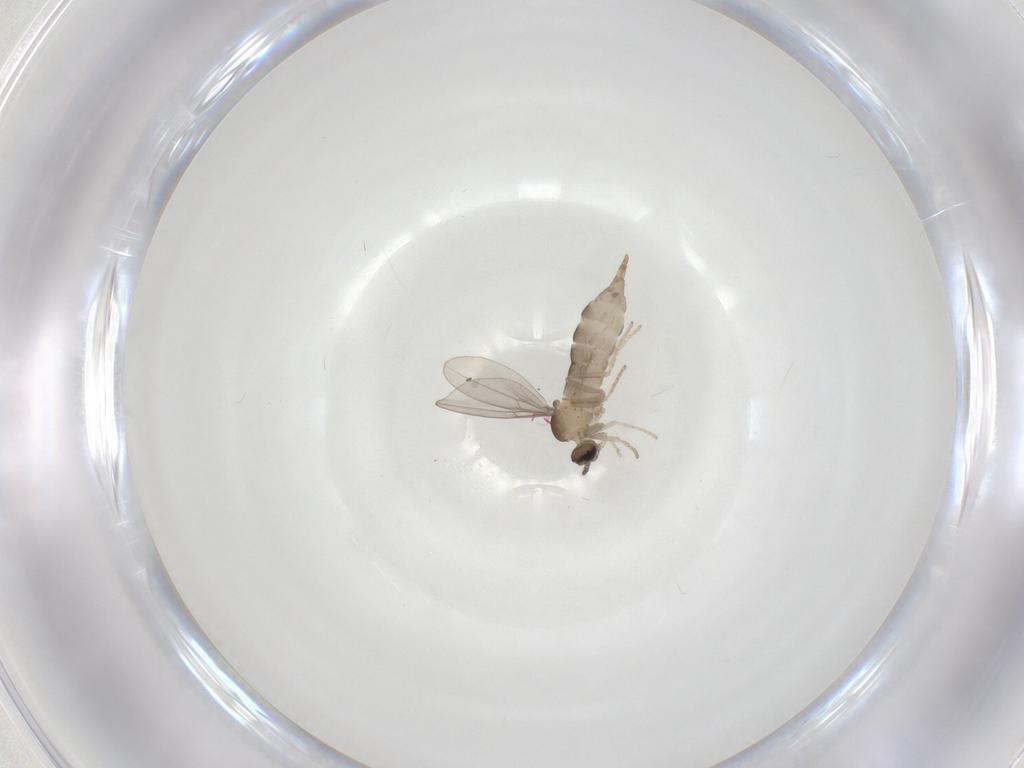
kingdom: Animalia
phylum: Arthropoda
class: Insecta
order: Diptera
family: Cecidomyiidae
